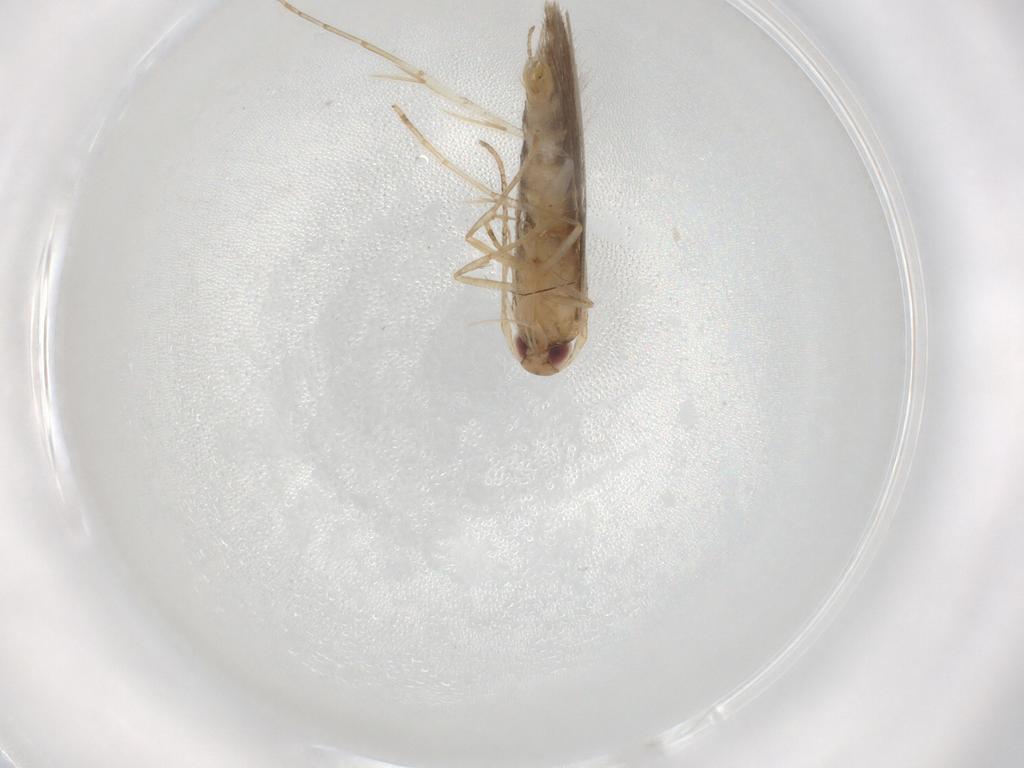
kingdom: Animalia
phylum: Arthropoda
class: Insecta
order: Lepidoptera
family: Cosmopterigidae
